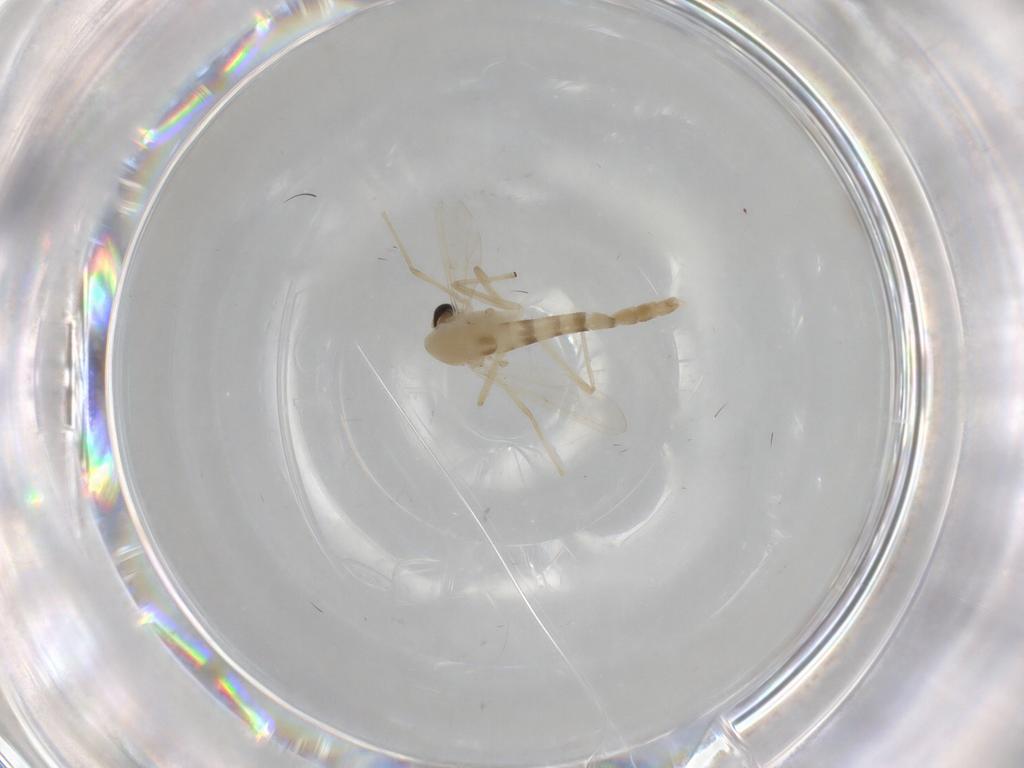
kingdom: Animalia
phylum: Arthropoda
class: Insecta
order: Diptera
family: Chironomidae
